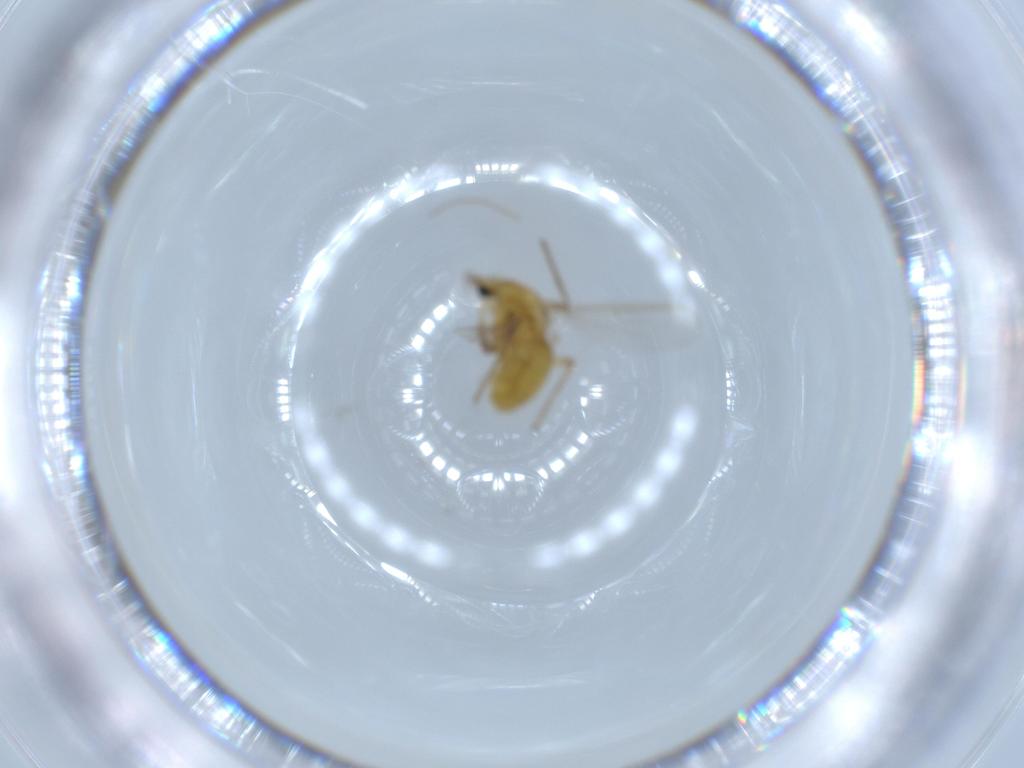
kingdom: Animalia
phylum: Arthropoda
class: Insecta
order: Diptera
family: Chironomidae
